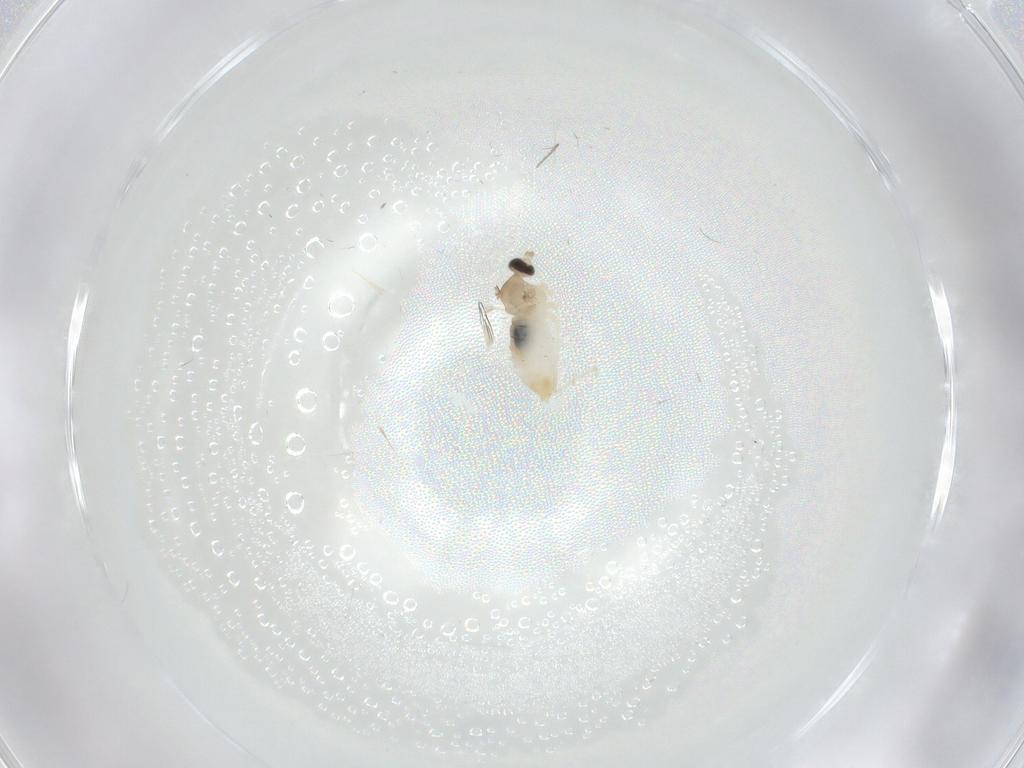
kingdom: Animalia
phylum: Arthropoda
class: Insecta
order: Diptera
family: Cecidomyiidae
